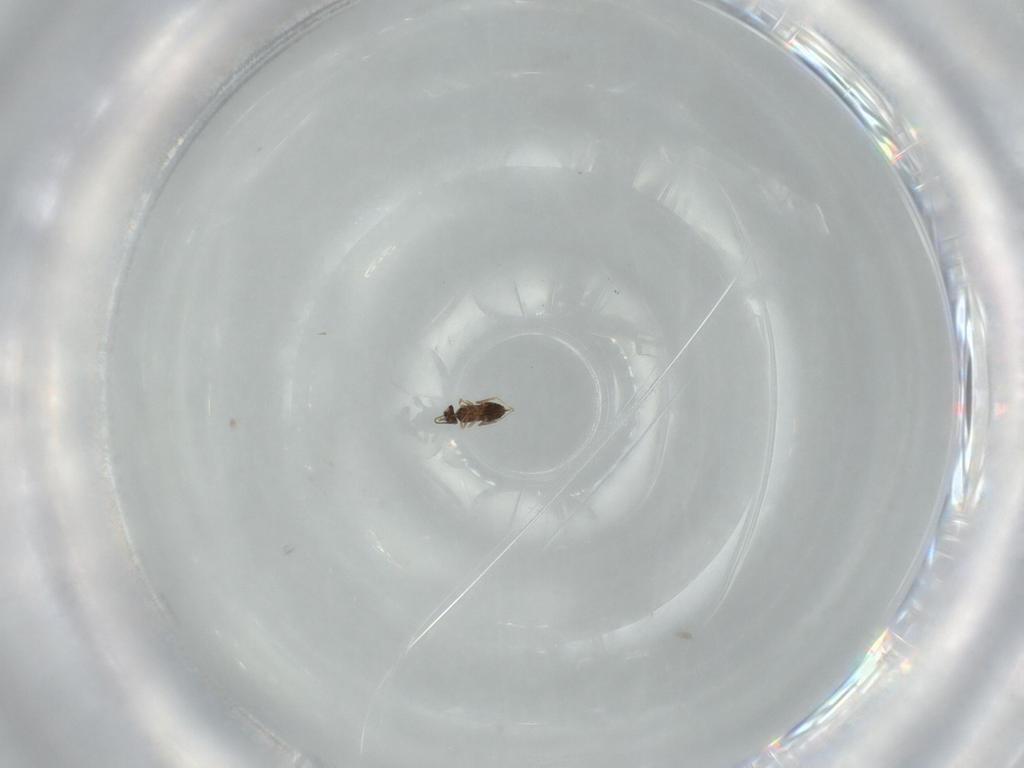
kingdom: Animalia
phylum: Arthropoda
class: Insecta
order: Hymenoptera
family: Braconidae
